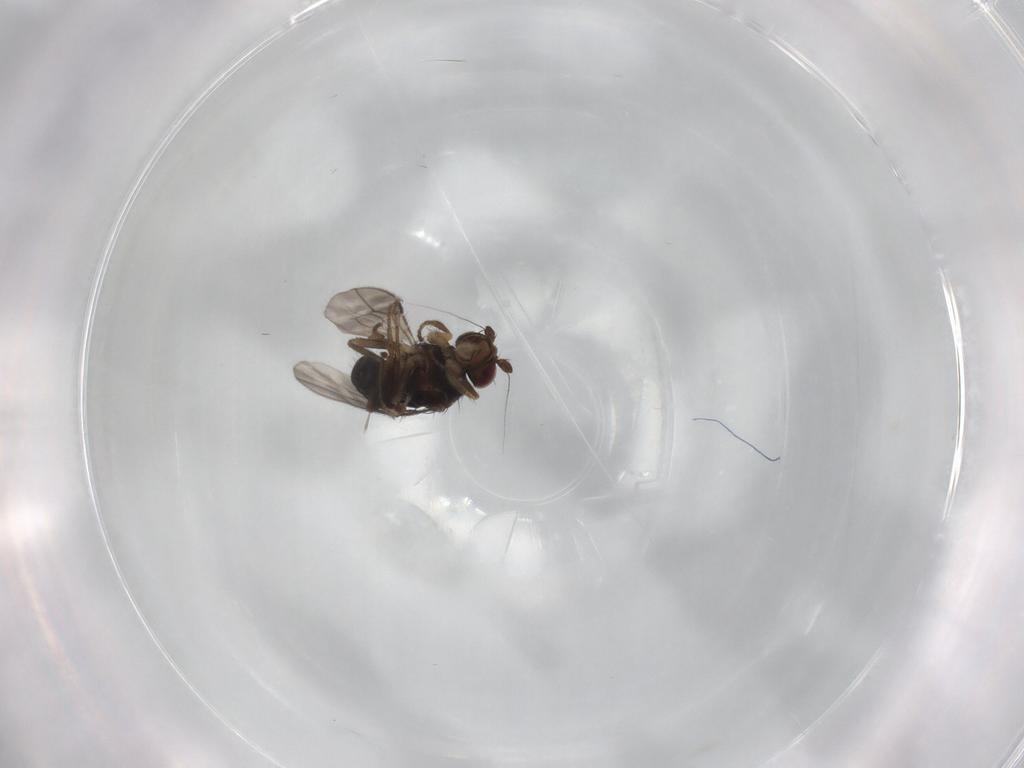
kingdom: Animalia
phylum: Arthropoda
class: Insecta
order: Diptera
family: Sphaeroceridae
